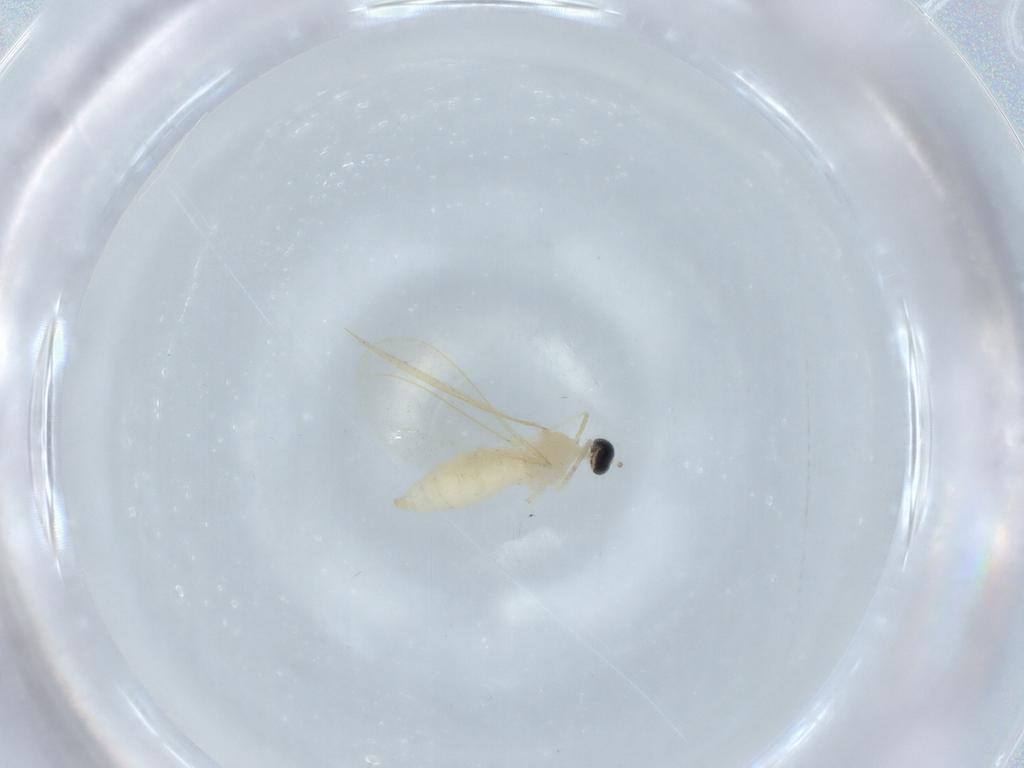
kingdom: Animalia
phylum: Arthropoda
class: Insecta
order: Diptera
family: Cecidomyiidae
